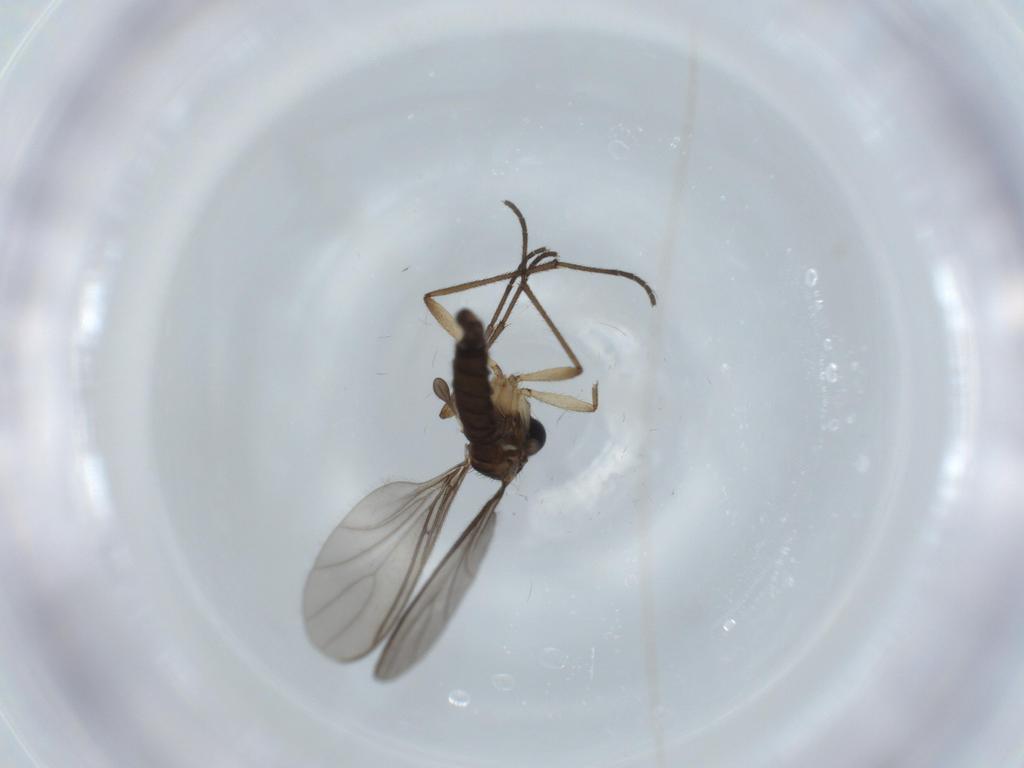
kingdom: Animalia
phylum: Arthropoda
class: Insecta
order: Diptera
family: Sciaridae
